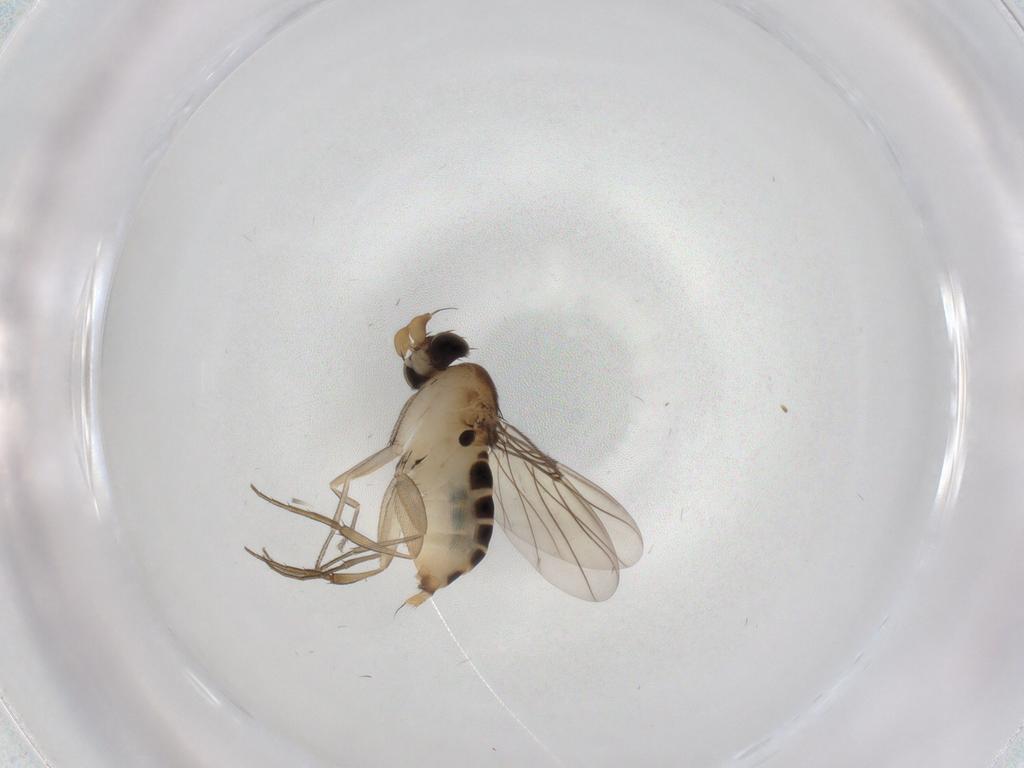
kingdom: Animalia
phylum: Arthropoda
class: Insecta
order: Diptera
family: Phoridae
